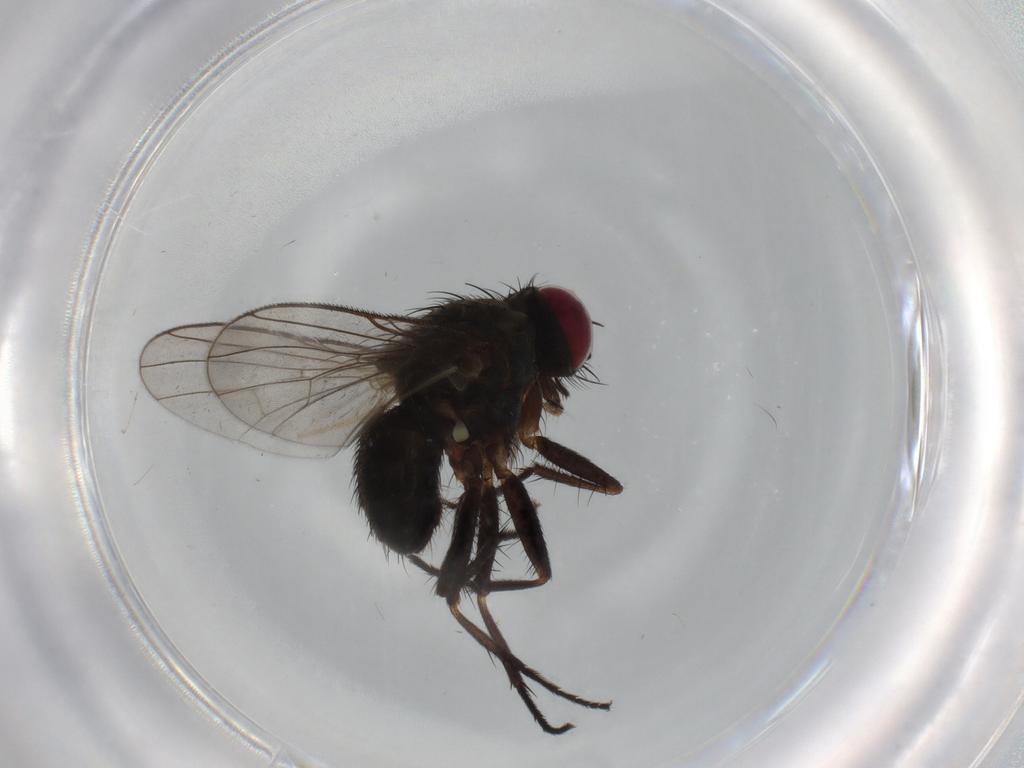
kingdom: Animalia
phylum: Arthropoda
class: Insecta
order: Diptera
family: Muscidae
